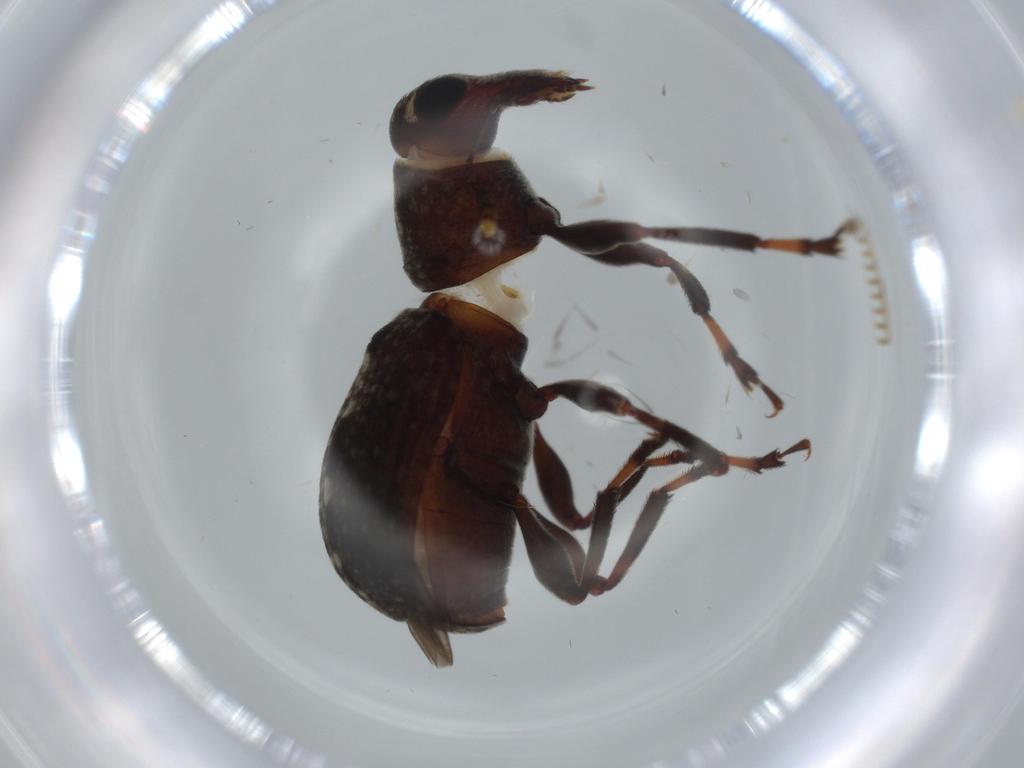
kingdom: Animalia
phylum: Arthropoda
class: Insecta
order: Coleoptera
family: Anthribidae
